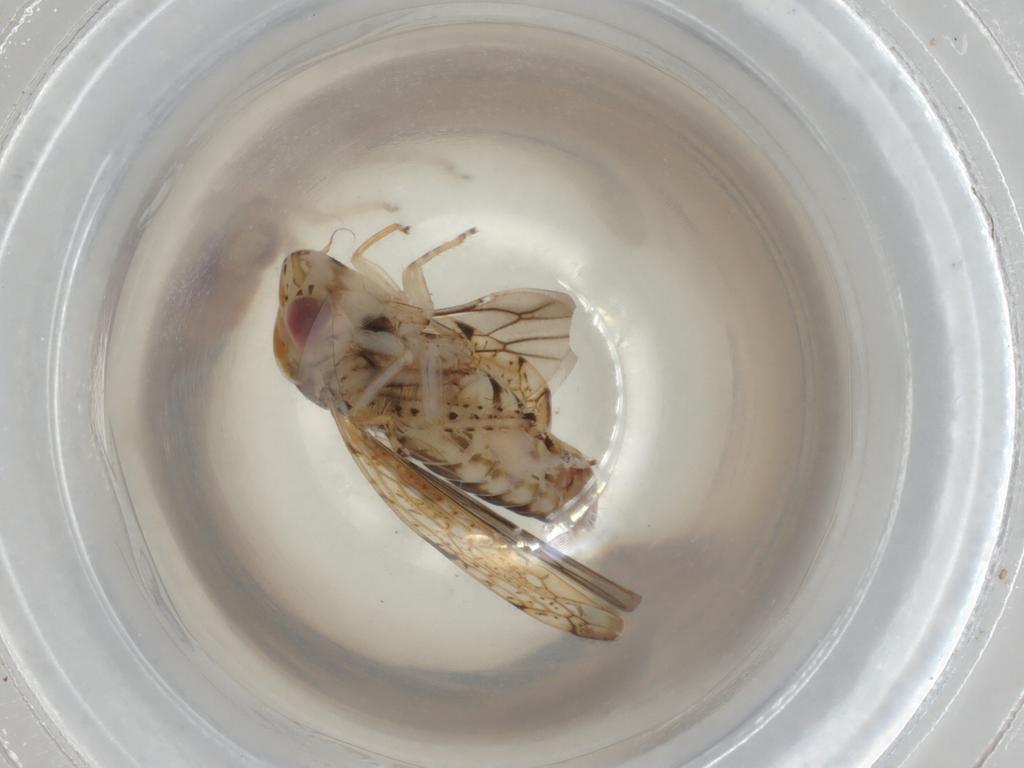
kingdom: Animalia
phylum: Arthropoda
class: Insecta
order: Hemiptera
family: Cicadellidae
